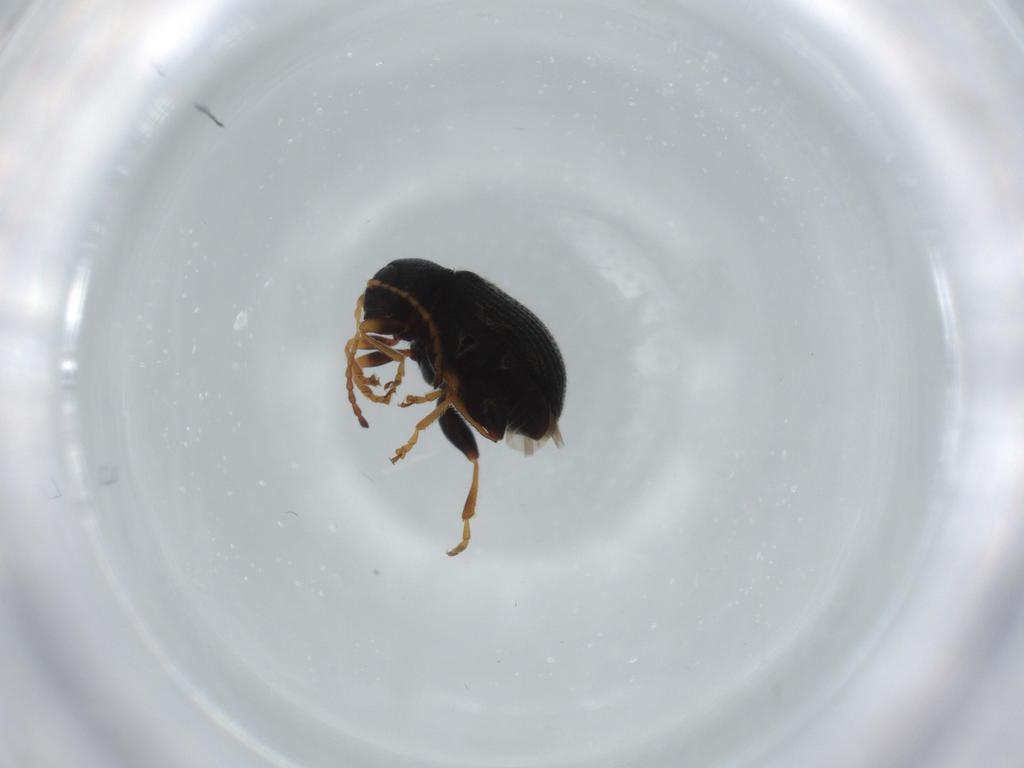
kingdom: Animalia
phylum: Arthropoda
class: Insecta
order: Coleoptera
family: Chrysomelidae
